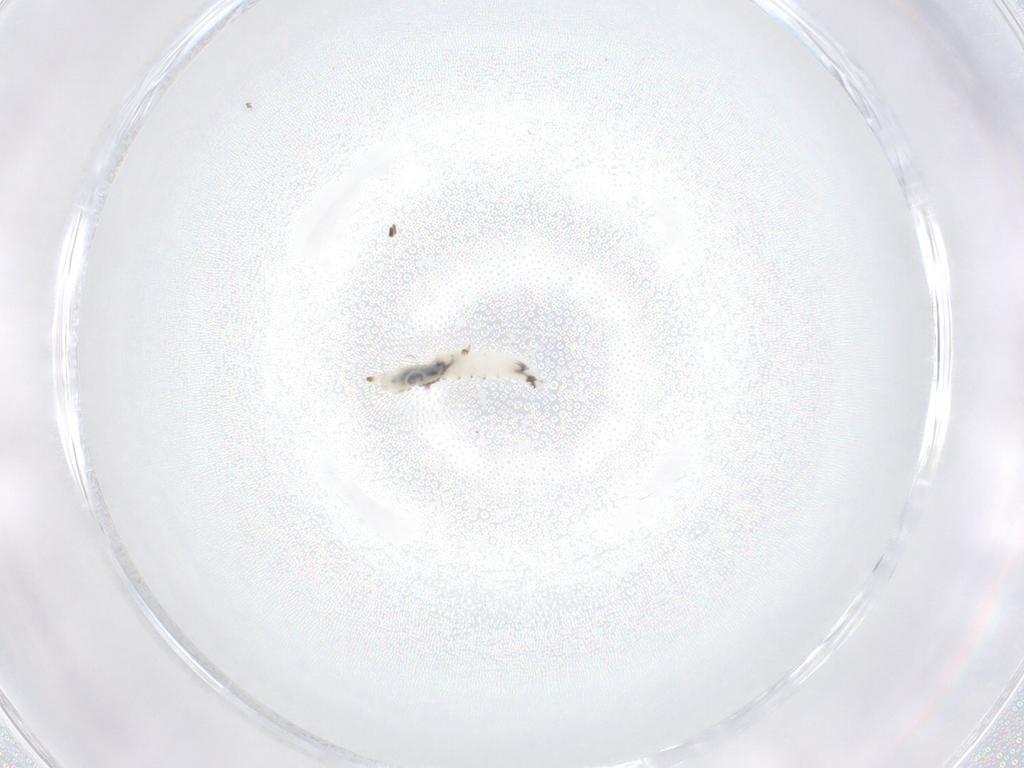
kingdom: Animalia
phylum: Arthropoda
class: Insecta
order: Diptera
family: Drosophilidae
